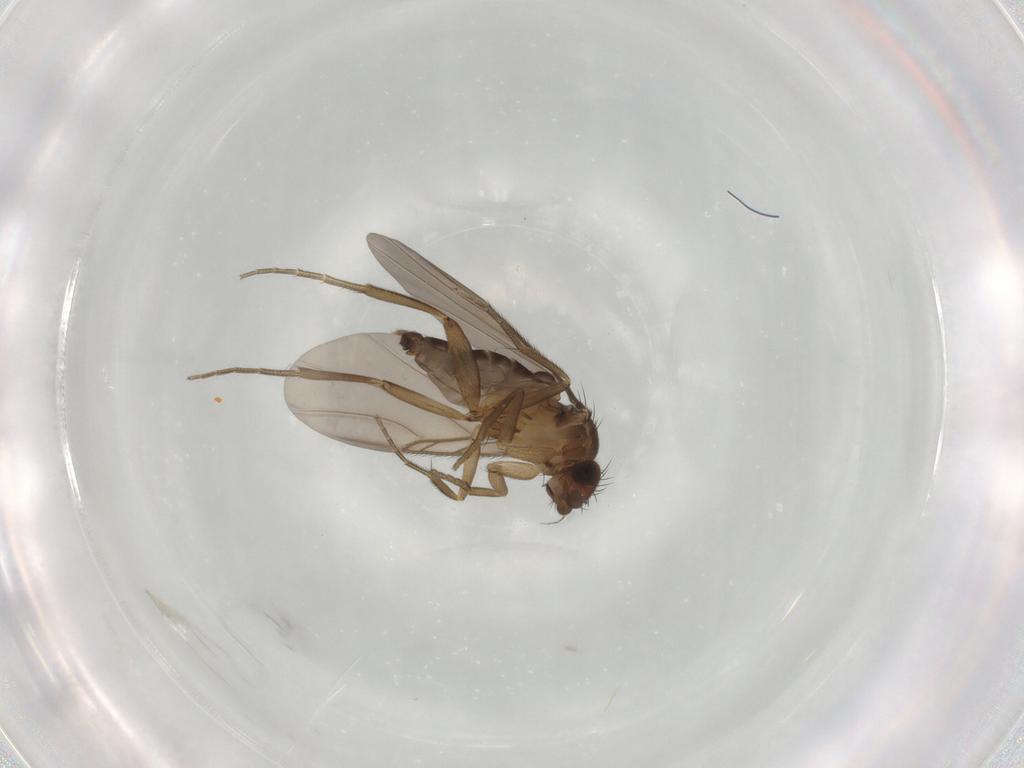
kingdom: Animalia
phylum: Arthropoda
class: Insecta
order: Diptera
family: Phoridae
